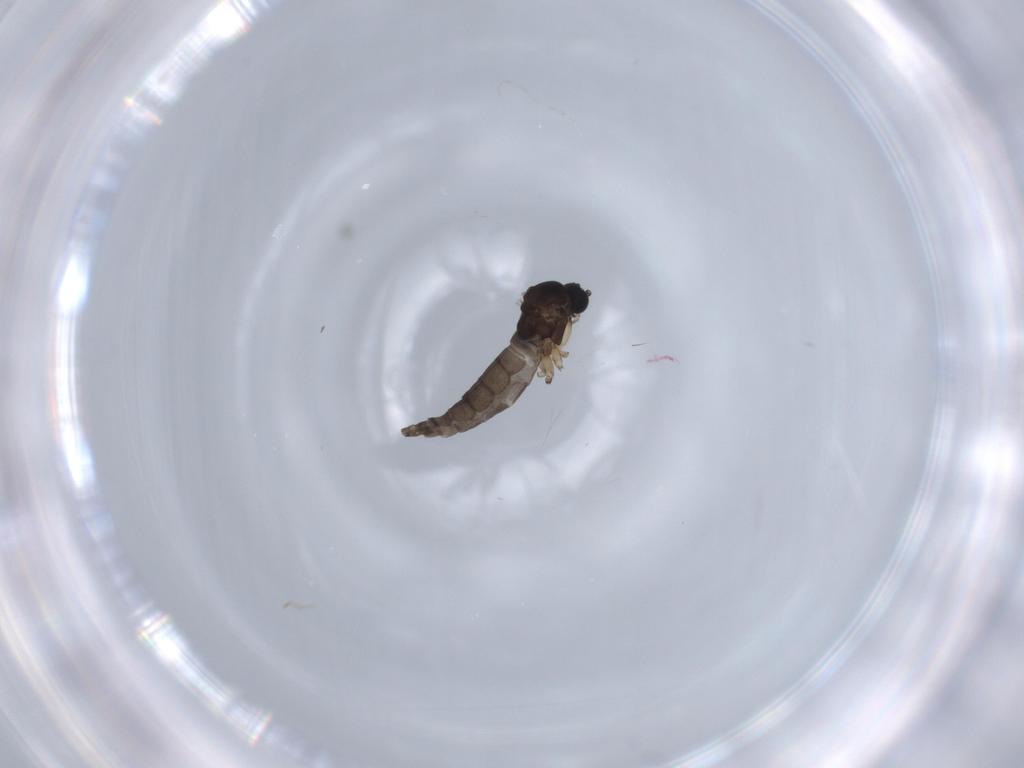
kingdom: Animalia
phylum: Arthropoda
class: Insecta
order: Diptera
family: Sciaridae
